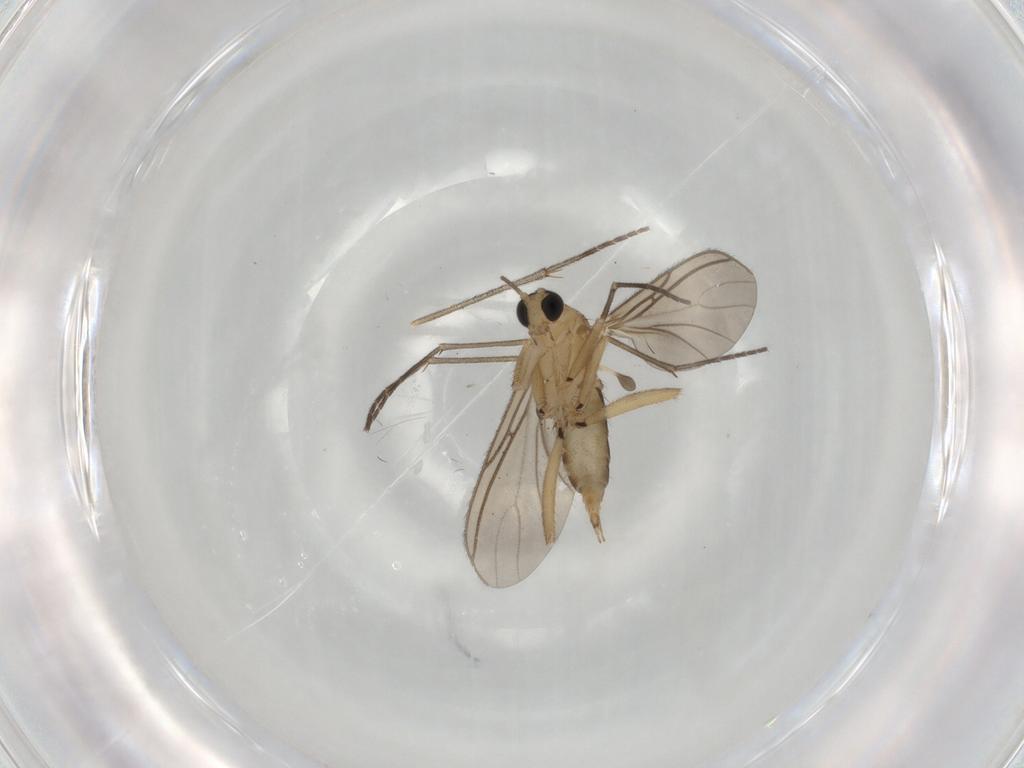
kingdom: Animalia
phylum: Arthropoda
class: Insecta
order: Diptera
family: Sciaridae
